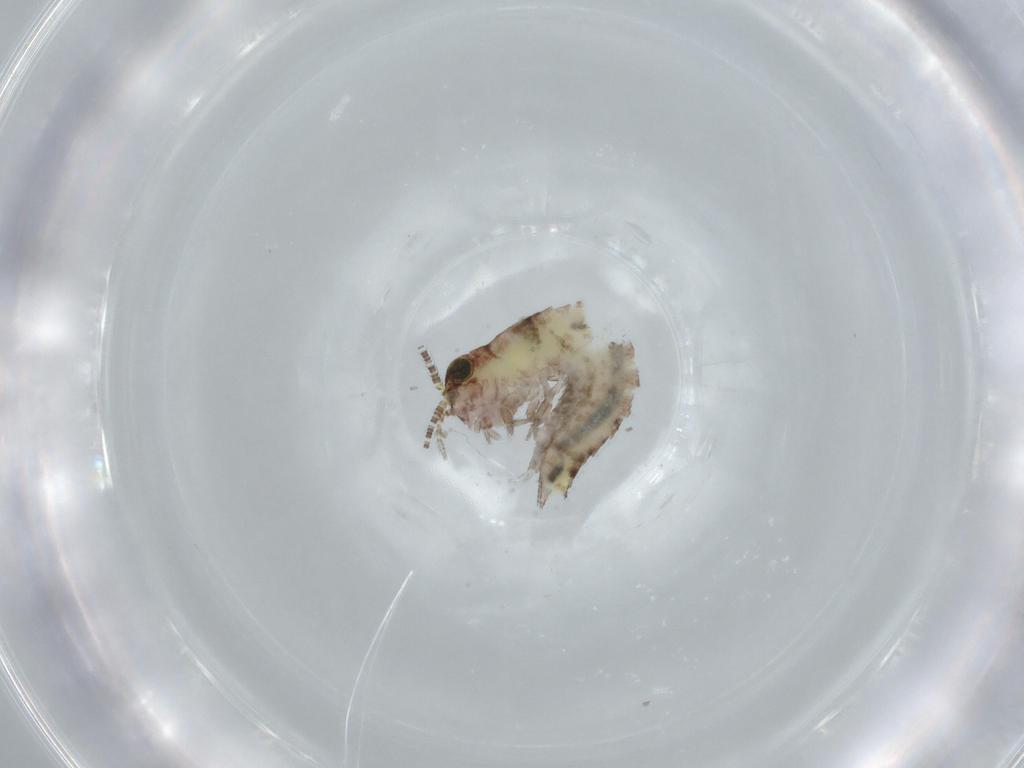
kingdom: Animalia
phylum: Arthropoda
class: Insecta
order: Archaeognatha
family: Machilidae
